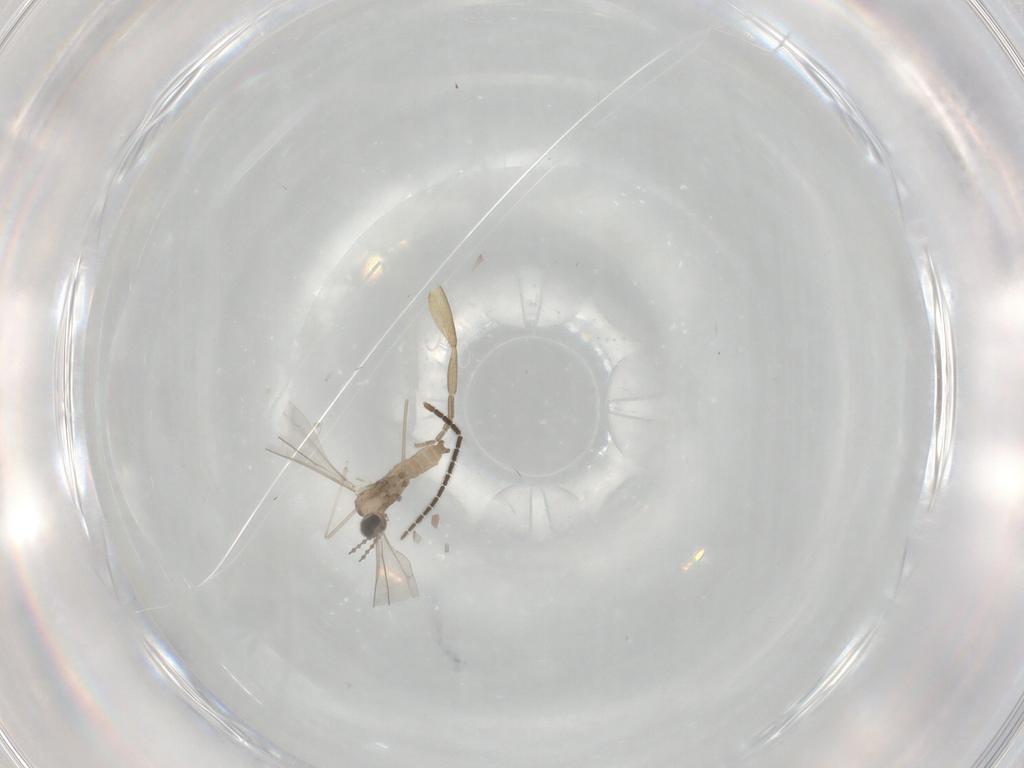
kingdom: Animalia
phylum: Arthropoda
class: Insecta
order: Diptera
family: Cecidomyiidae
